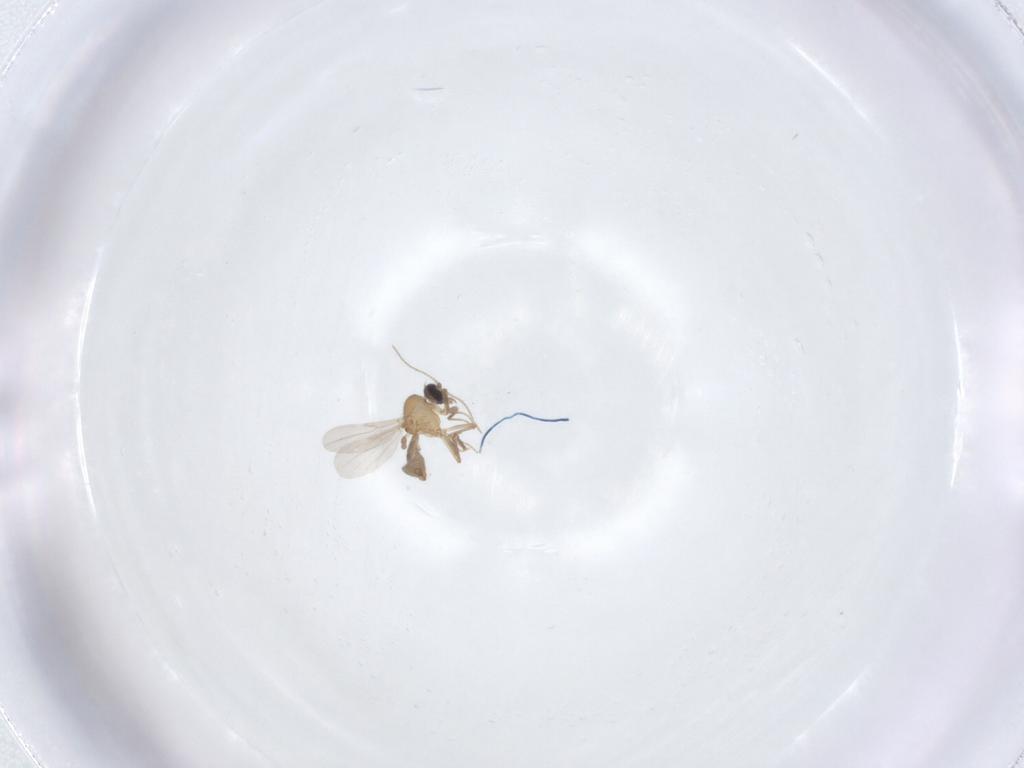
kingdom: Animalia
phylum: Arthropoda
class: Insecta
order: Diptera
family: Ceratopogonidae
